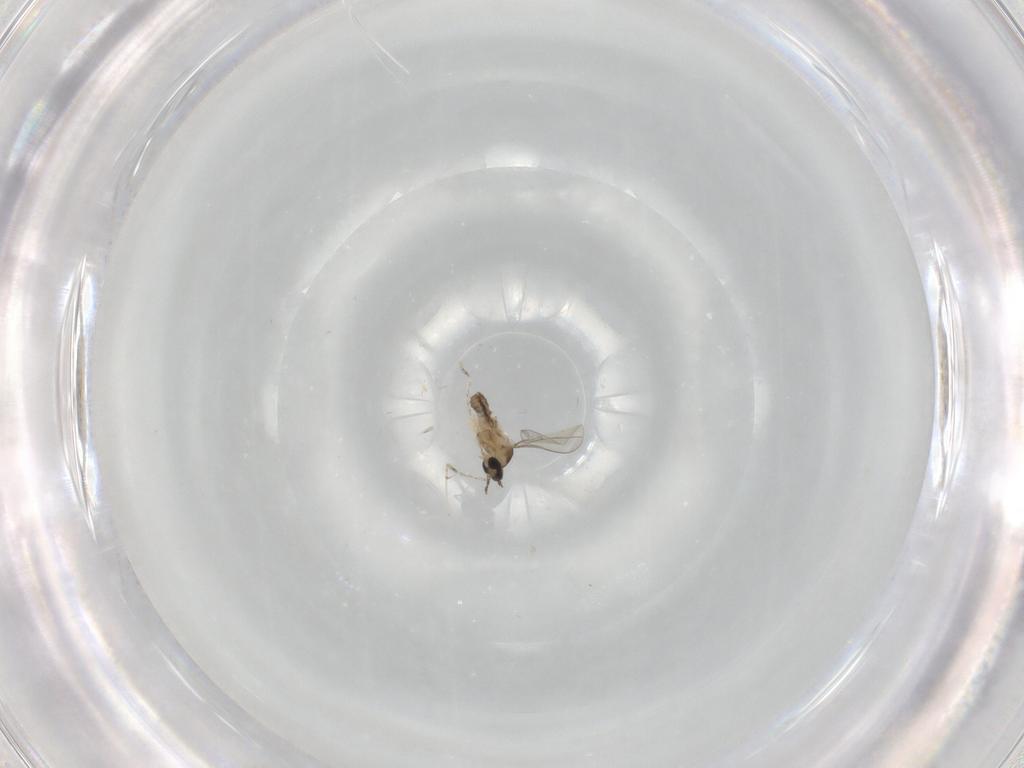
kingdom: Animalia
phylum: Arthropoda
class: Insecta
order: Diptera
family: Cecidomyiidae
